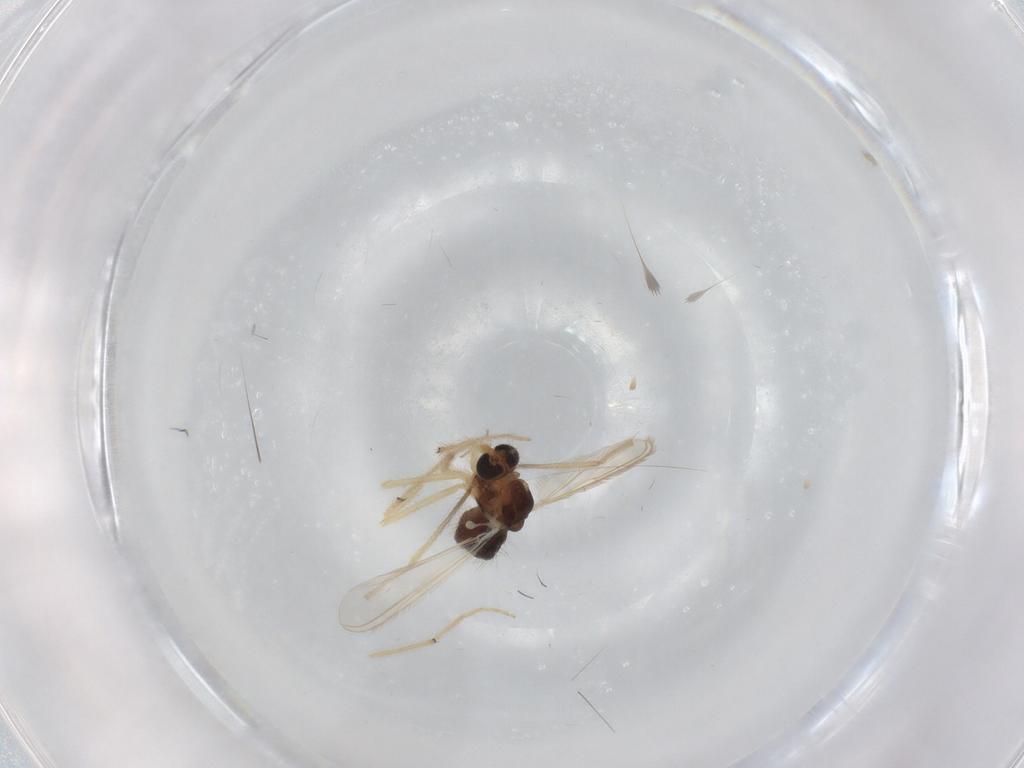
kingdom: Animalia
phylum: Arthropoda
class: Insecta
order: Diptera
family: Chironomidae
